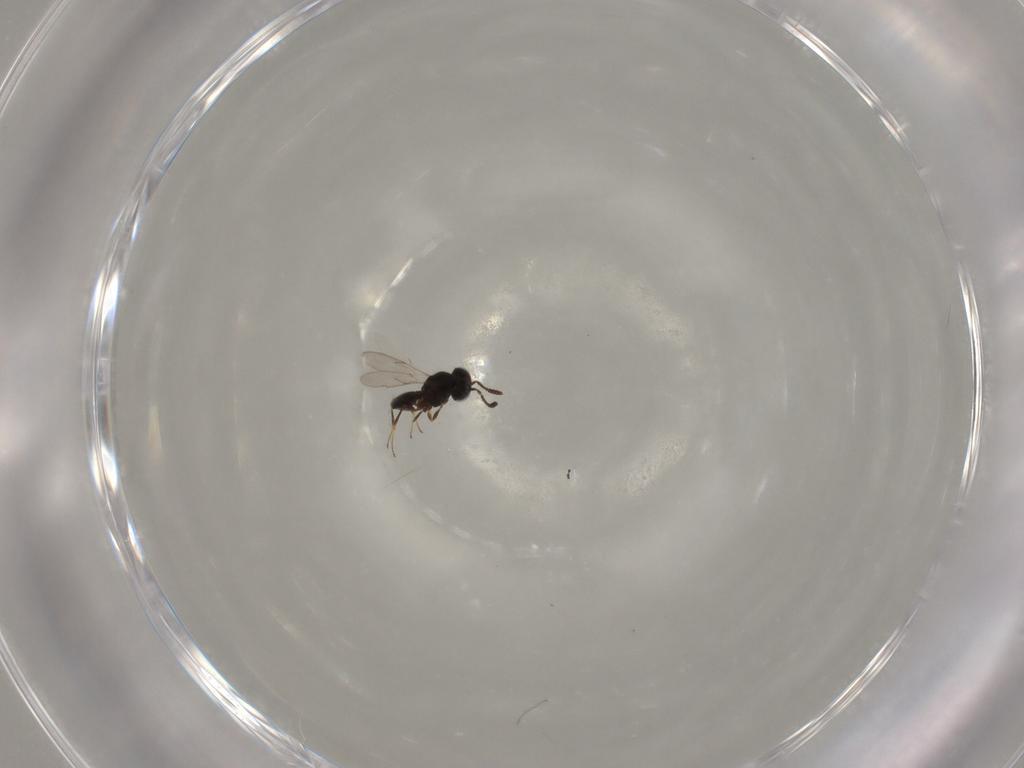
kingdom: Animalia
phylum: Arthropoda
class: Insecta
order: Hymenoptera
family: Scelionidae
